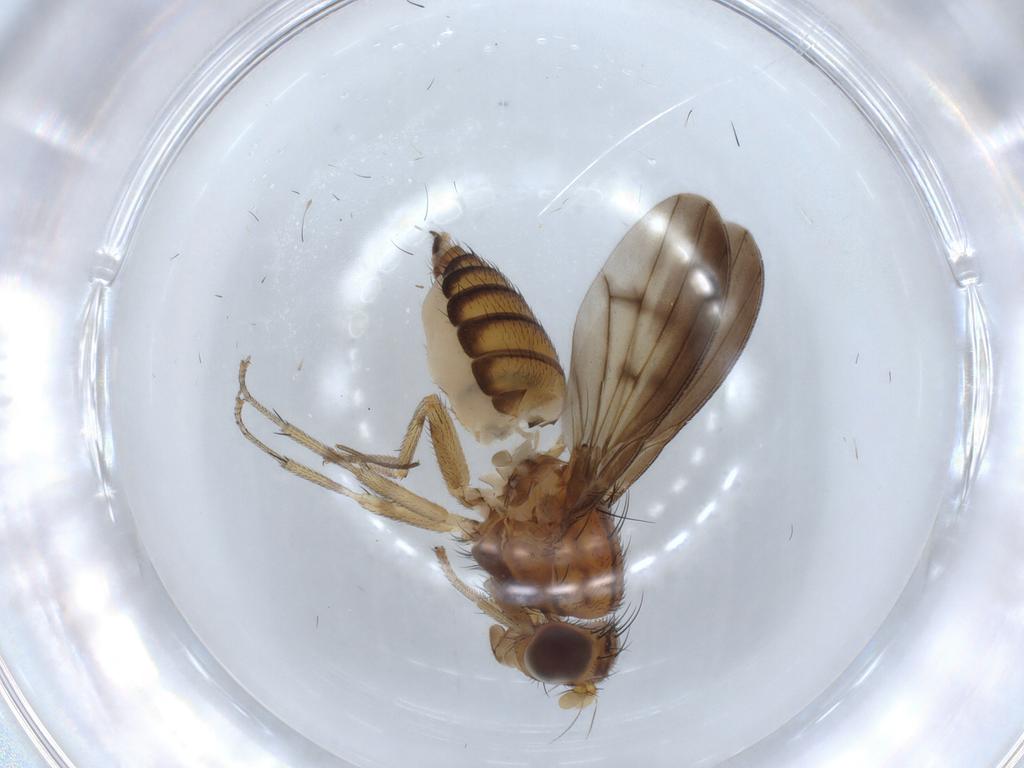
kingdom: Animalia
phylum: Arthropoda
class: Insecta
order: Diptera
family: Lauxaniidae
